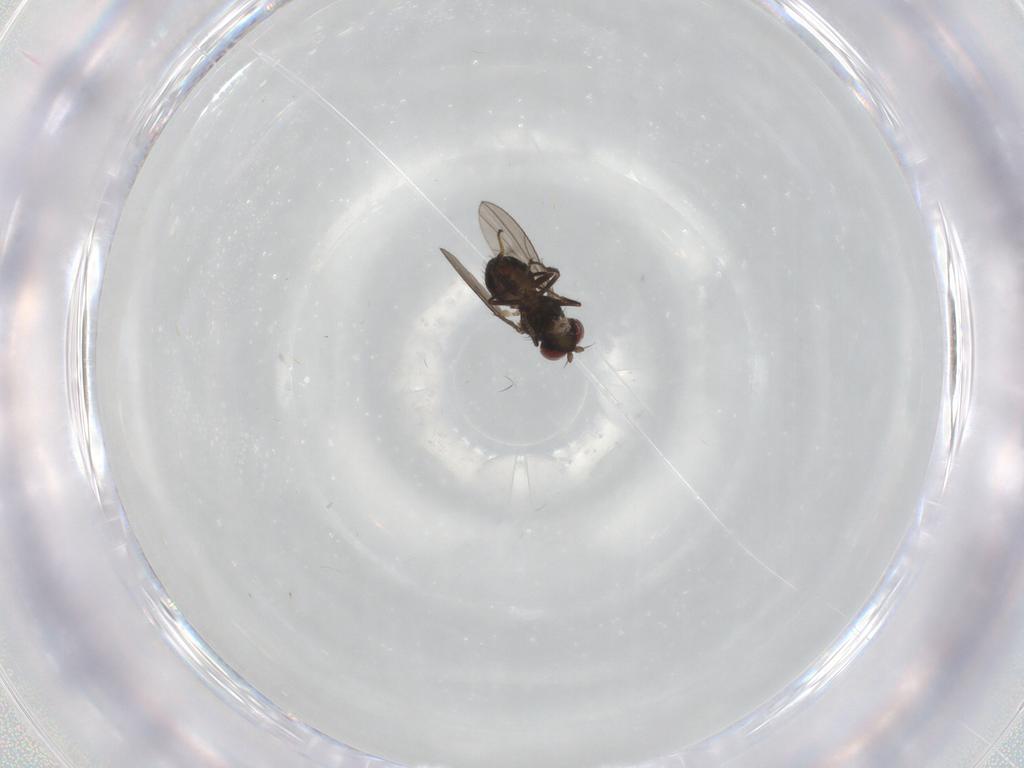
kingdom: Animalia
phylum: Arthropoda
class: Insecta
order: Diptera
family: Ephydridae
